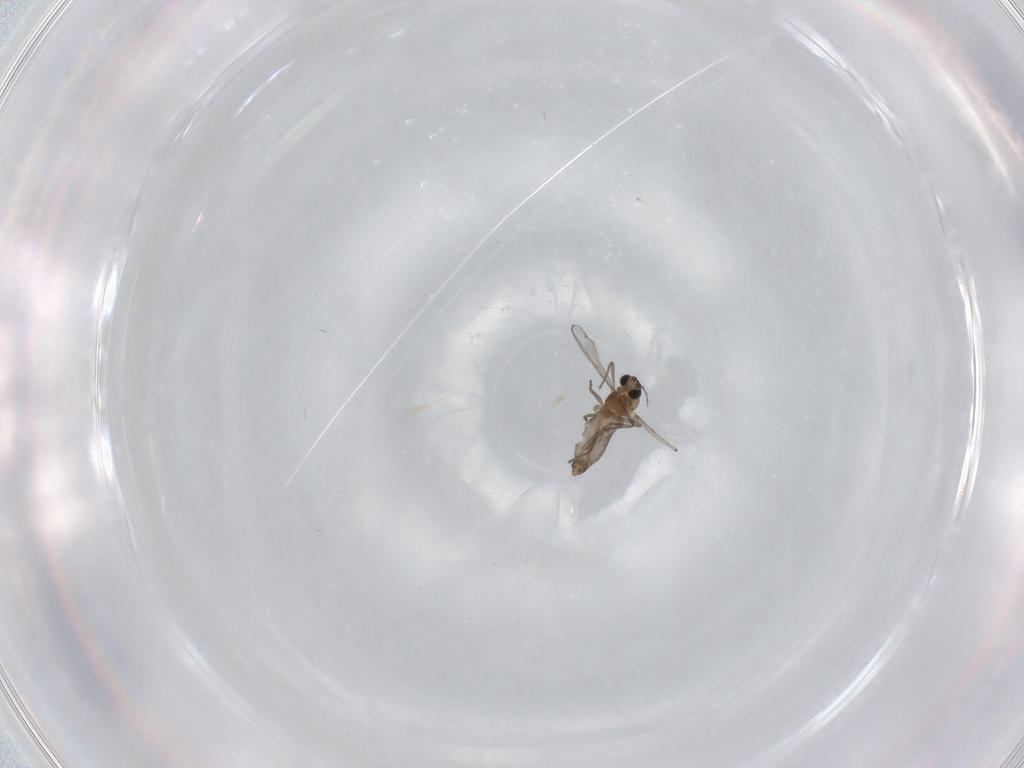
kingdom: Animalia
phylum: Arthropoda
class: Insecta
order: Diptera
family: Chironomidae
